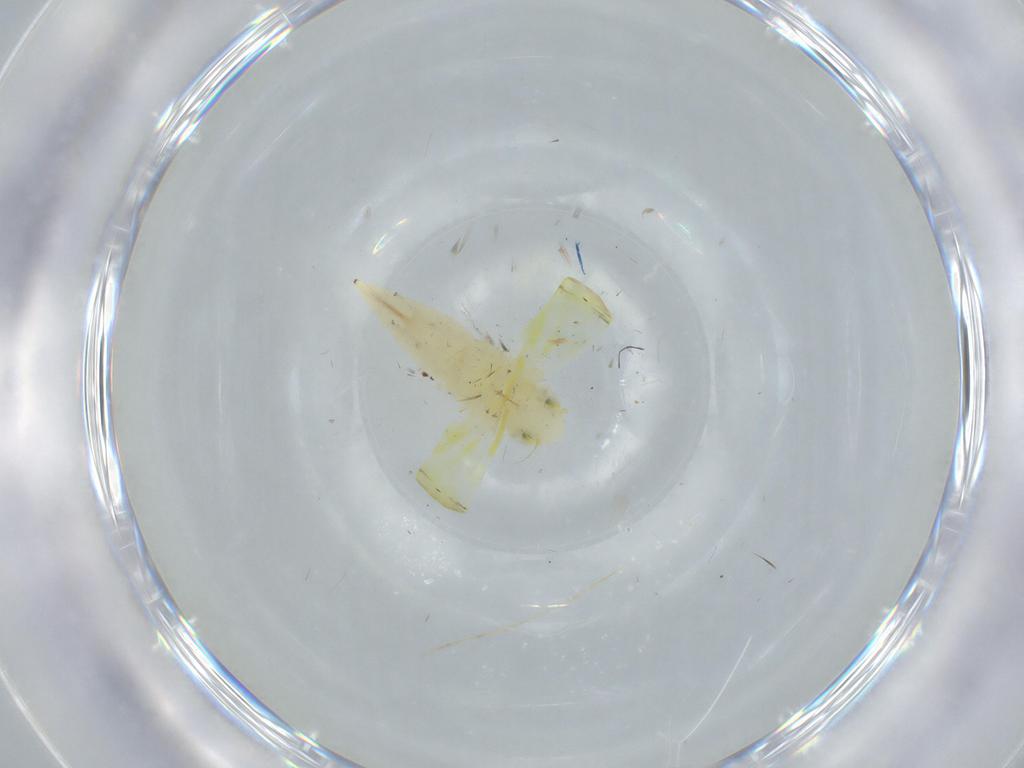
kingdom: Animalia
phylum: Arthropoda
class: Insecta
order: Hemiptera
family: Cicadellidae
